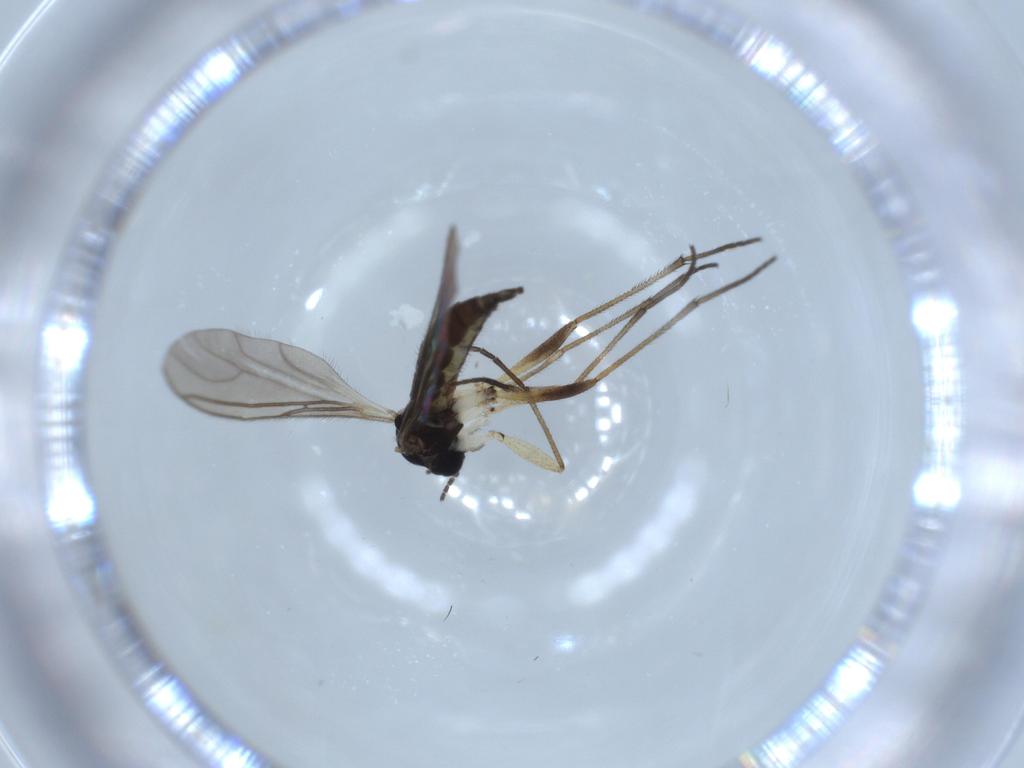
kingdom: Animalia
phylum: Arthropoda
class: Insecta
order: Diptera
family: Sciaridae
